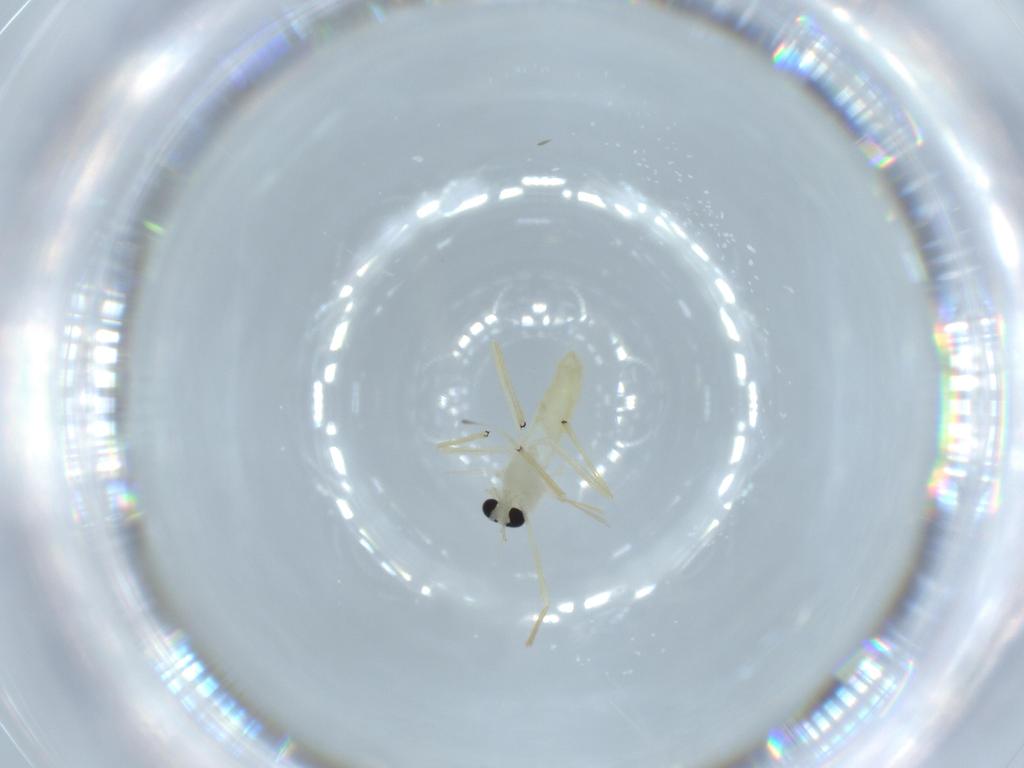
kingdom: Animalia
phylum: Arthropoda
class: Insecta
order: Diptera
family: Chironomidae
